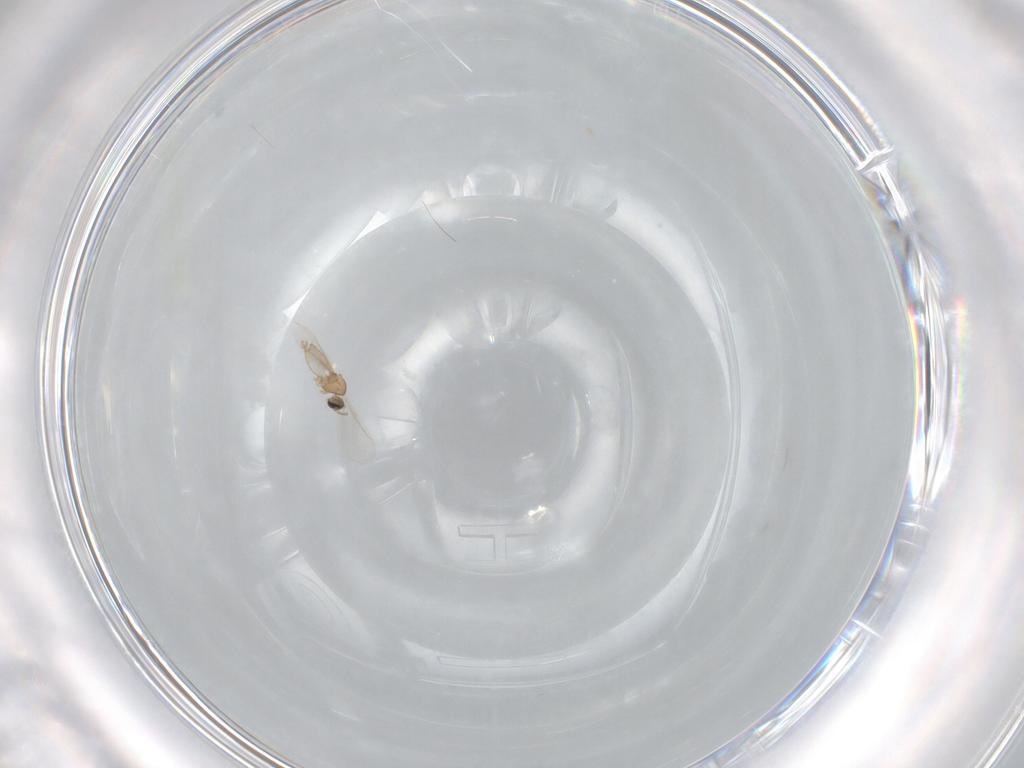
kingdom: Animalia
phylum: Arthropoda
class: Insecta
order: Diptera
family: Cecidomyiidae
